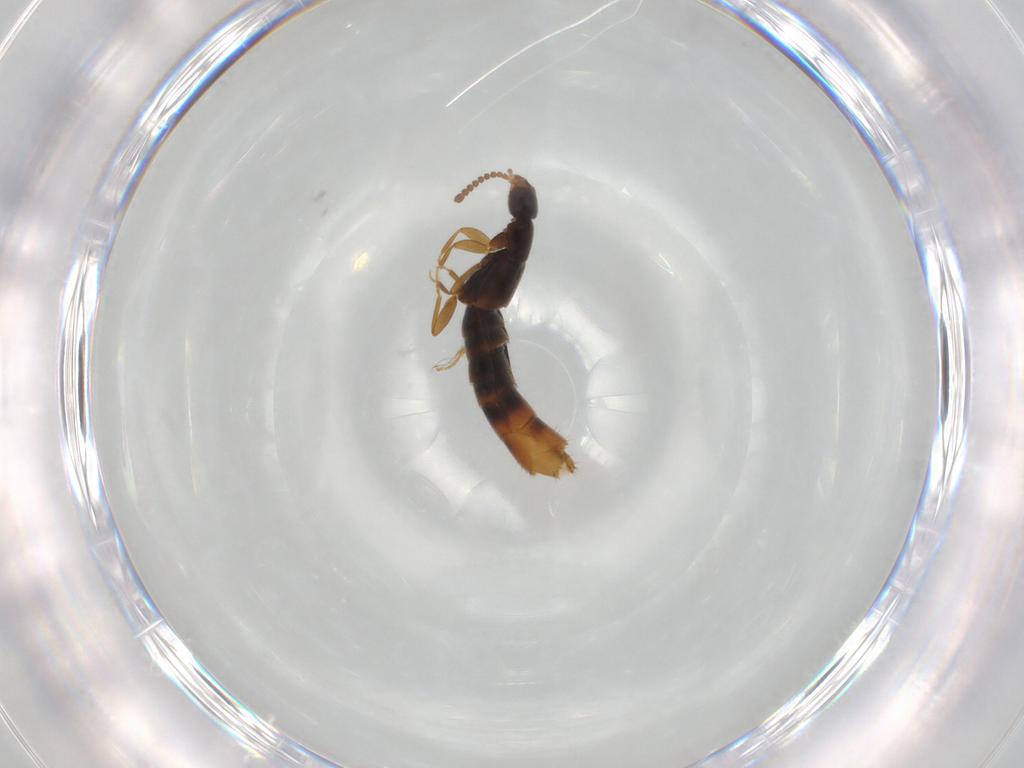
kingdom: Animalia
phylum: Arthropoda
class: Insecta
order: Coleoptera
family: Staphylinidae
